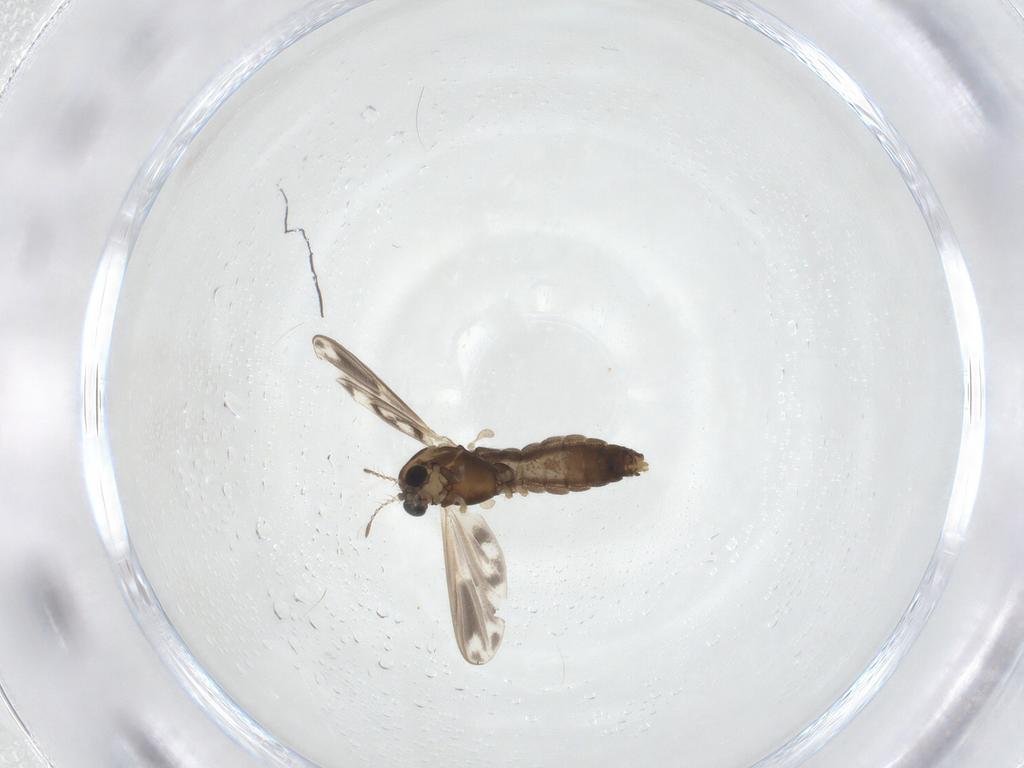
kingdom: Animalia
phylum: Arthropoda
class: Insecta
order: Diptera
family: Chironomidae
